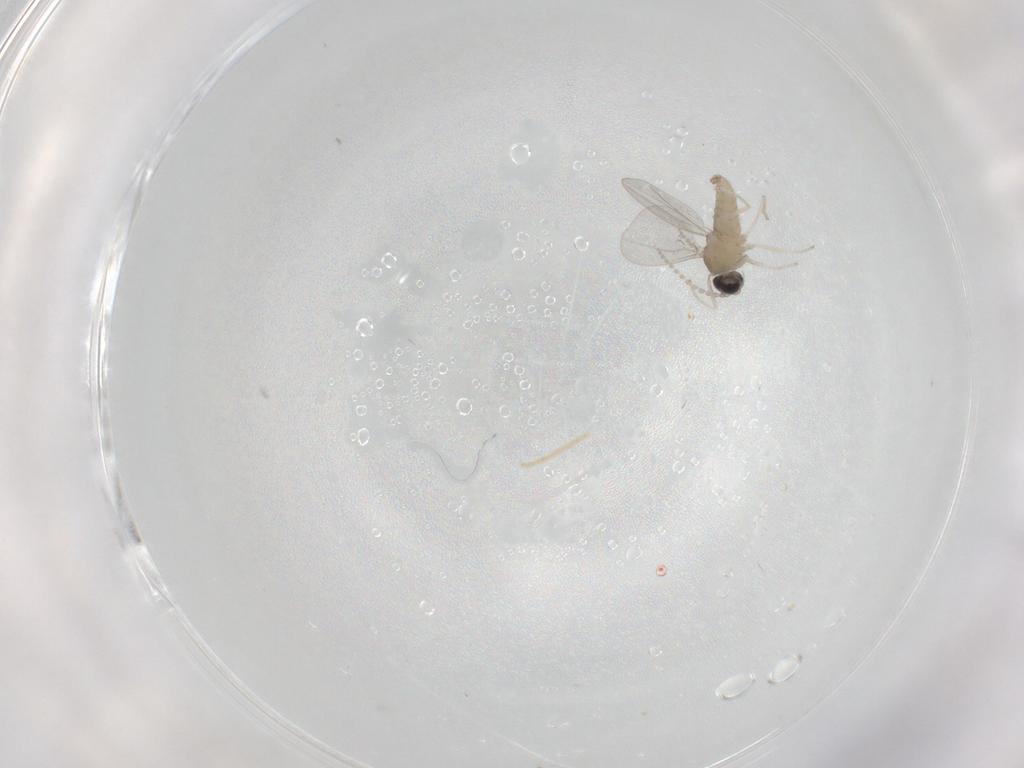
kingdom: Animalia
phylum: Arthropoda
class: Insecta
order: Diptera
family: Cecidomyiidae
